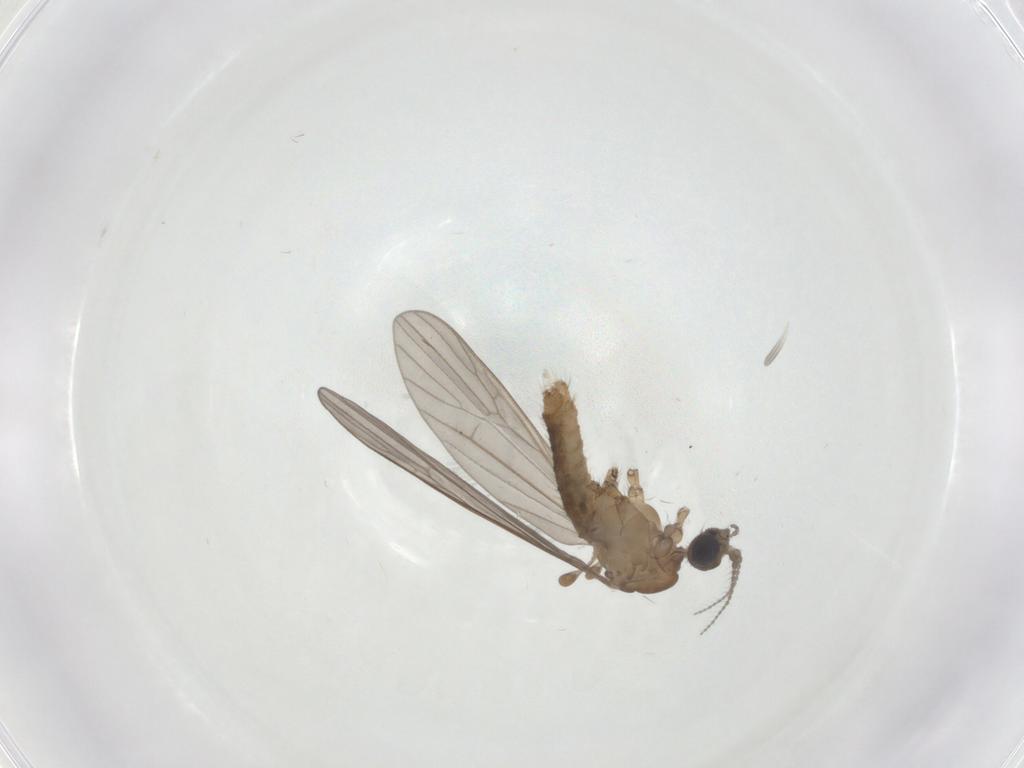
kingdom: Animalia
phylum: Arthropoda
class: Insecta
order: Diptera
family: Limoniidae
